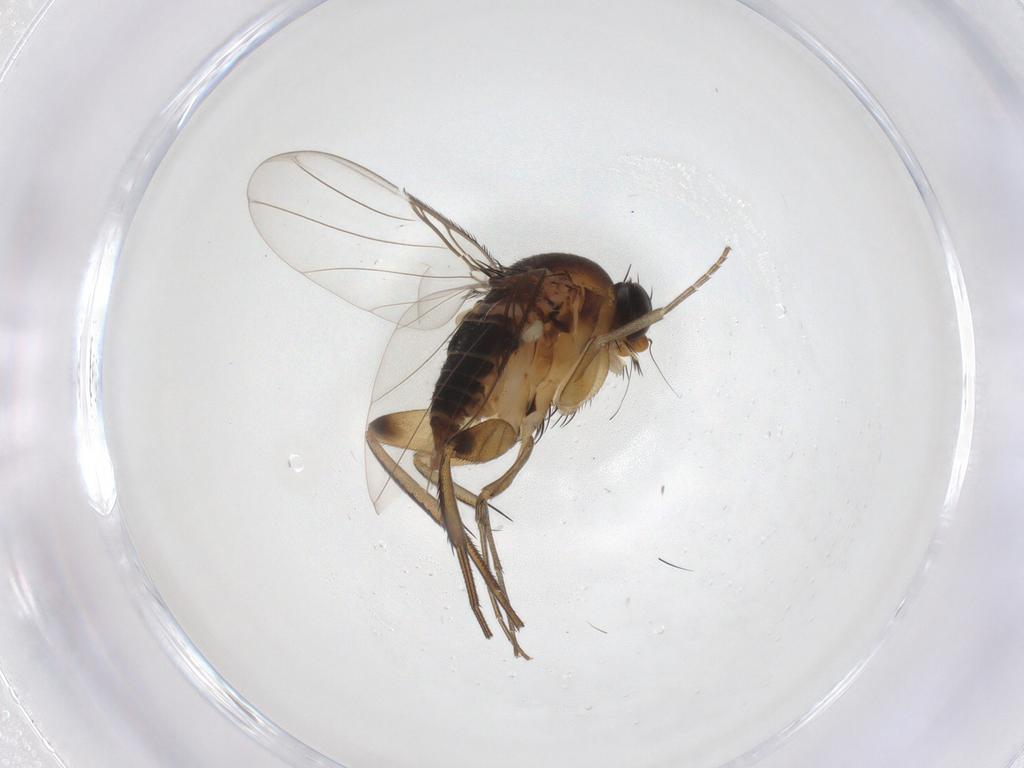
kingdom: Animalia
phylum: Arthropoda
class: Insecta
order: Diptera
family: Phoridae
